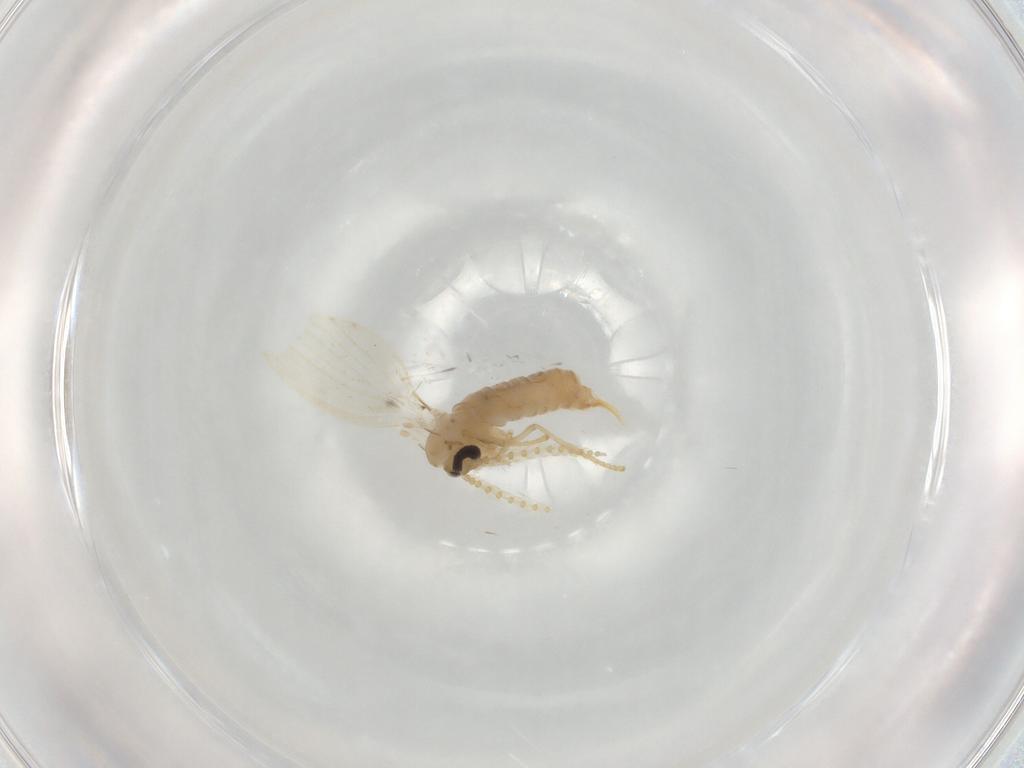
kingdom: Animalia
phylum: Arthropoda
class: Insecta
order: Diptera
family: Psychodidae
